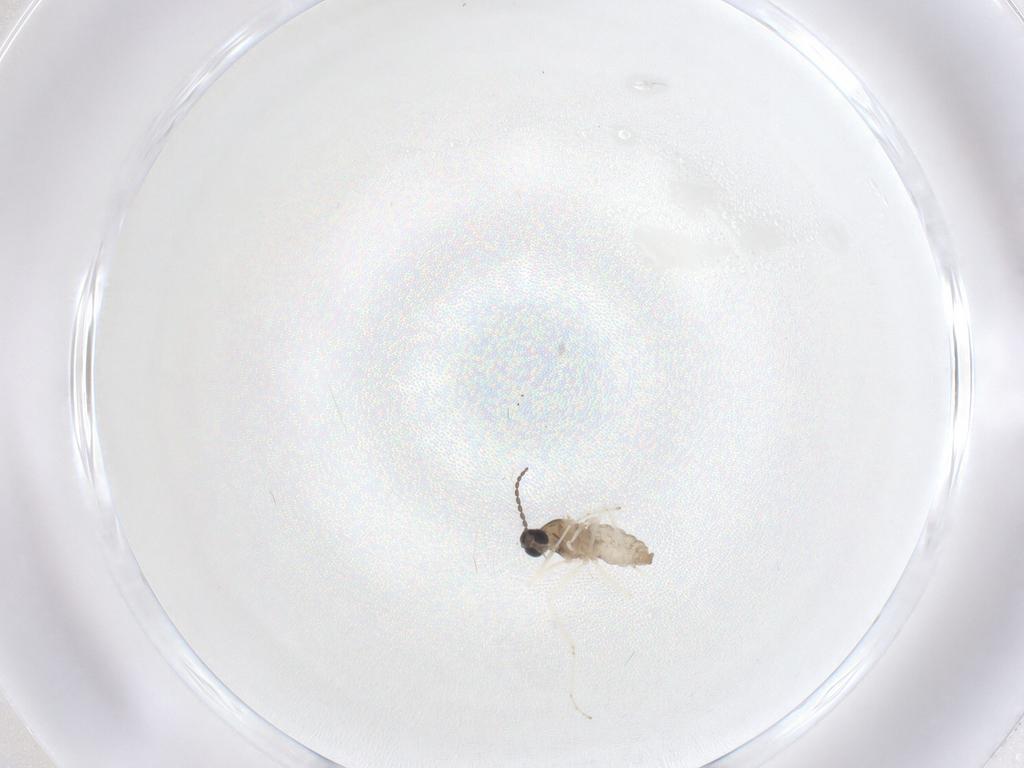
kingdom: Animalia
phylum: Arthropoda
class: Insecta
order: Diptera
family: Cecidomyiidae
